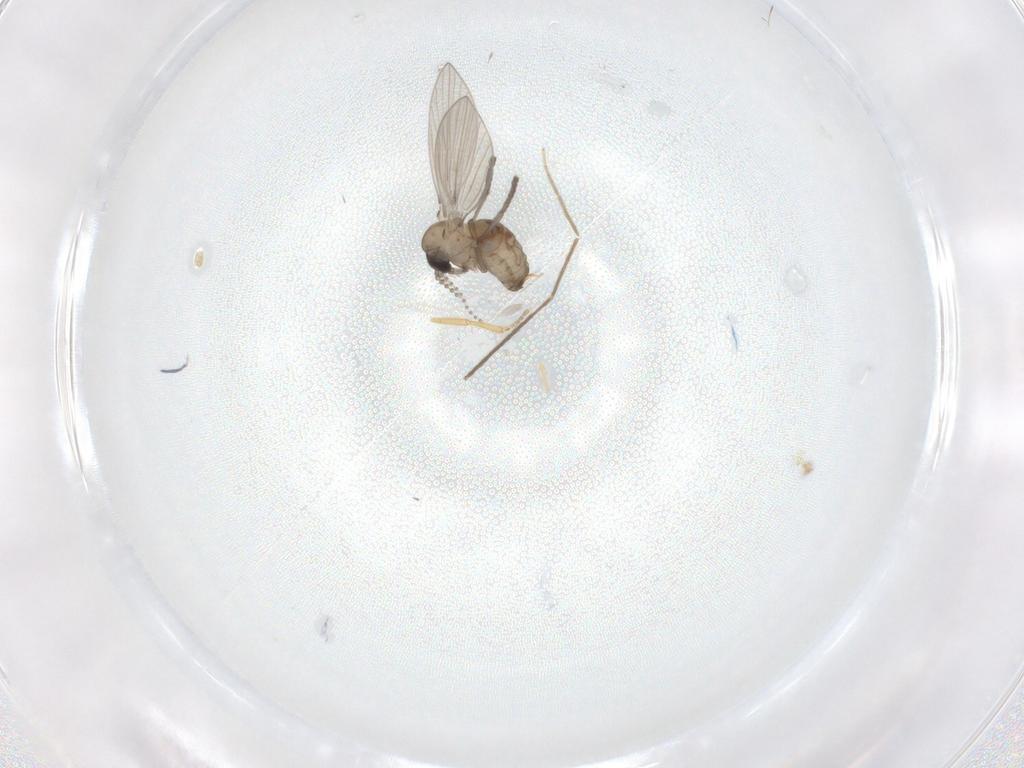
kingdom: Animalia
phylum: Arthropoda
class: Insecta
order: Diptera
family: Psychodidae
